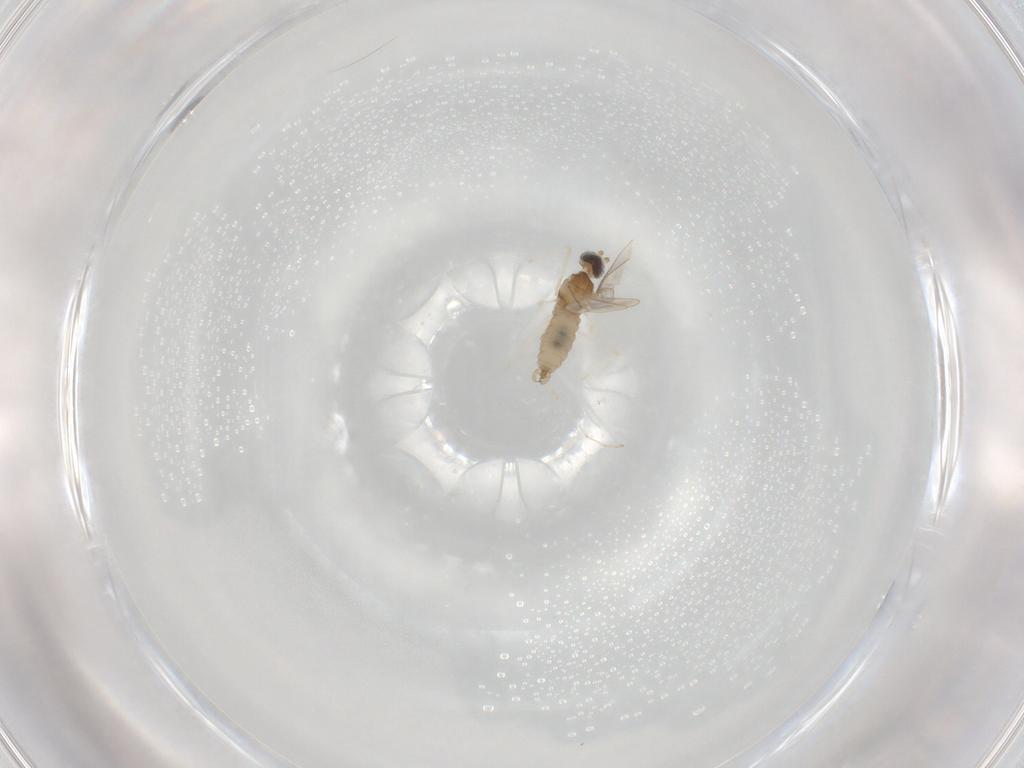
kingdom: Animalia
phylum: Arthropoda
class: Insecta
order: Diptera
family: Cecidomyiidae
